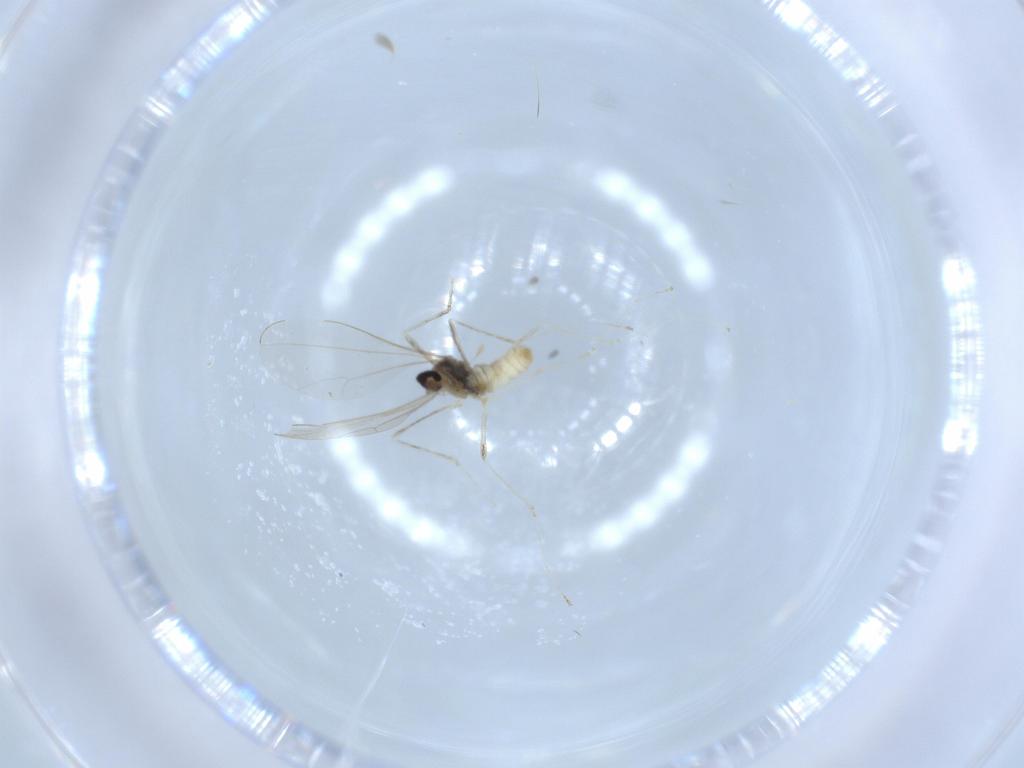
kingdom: Animalia
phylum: Arthropoda
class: Insecta
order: Diptera
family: Cecidomyiidae
